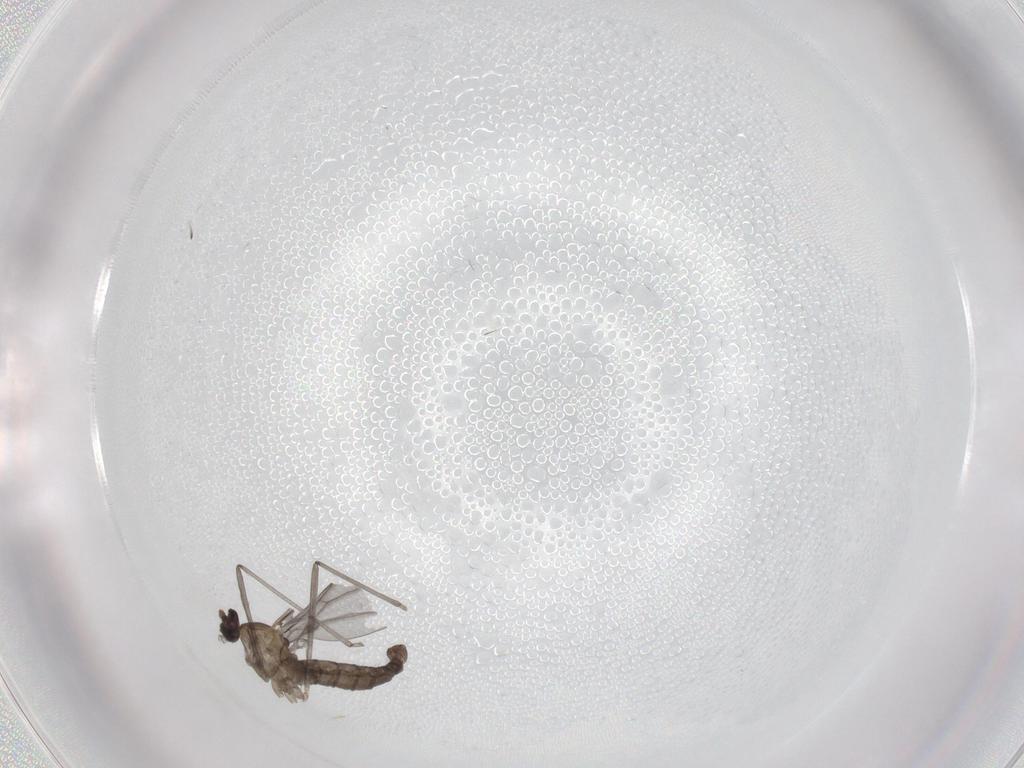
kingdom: Animalia
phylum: Arthropoda
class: Insecta
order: Diptera
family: Cecidomyiidae
